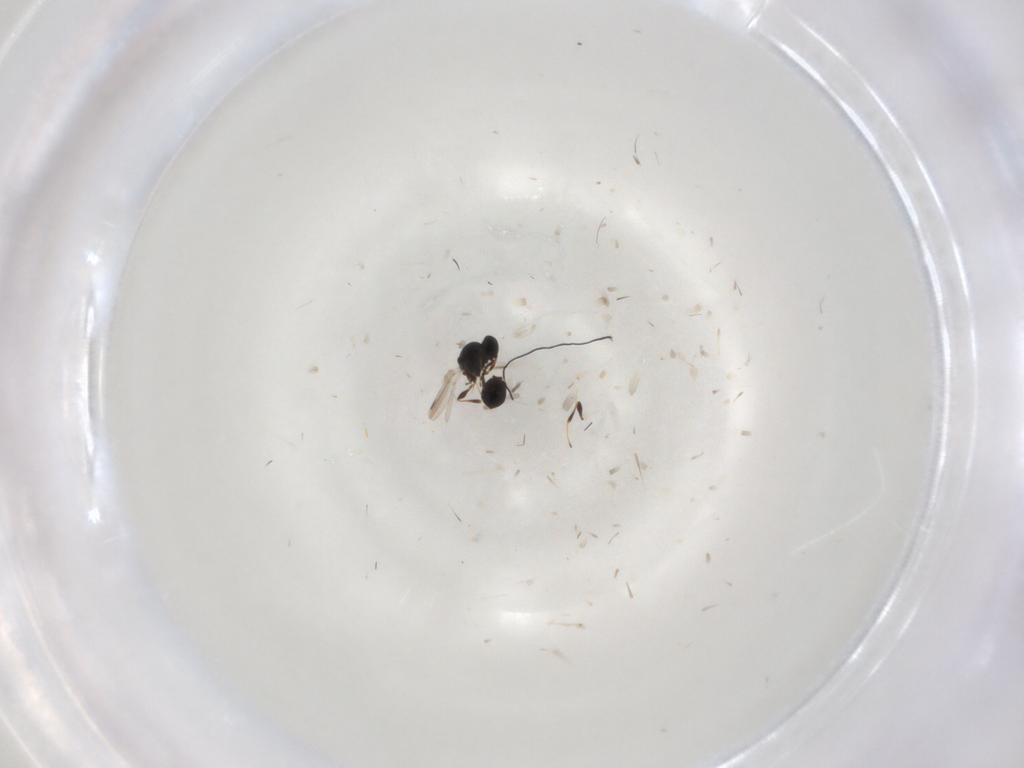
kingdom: Animalia
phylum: Arthropoda
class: Insecta
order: Hymenoptera
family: Platygastridae
